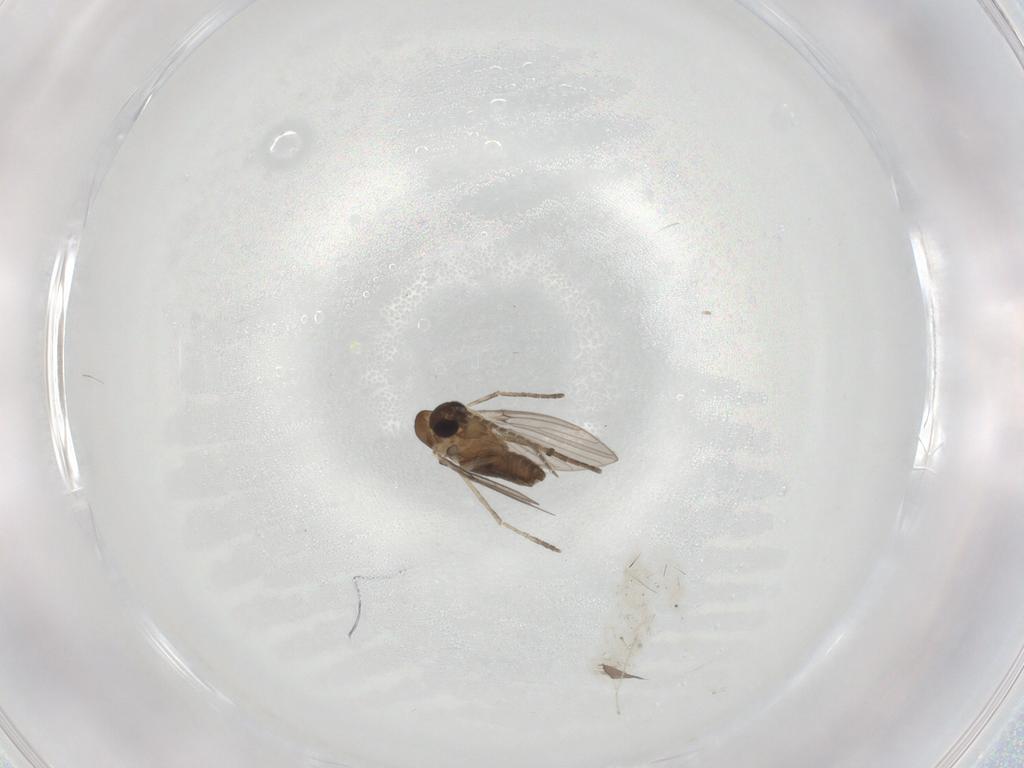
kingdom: Animalia
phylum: Arthropoda
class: Insecta
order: Diptera
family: Cecidomyiidae
